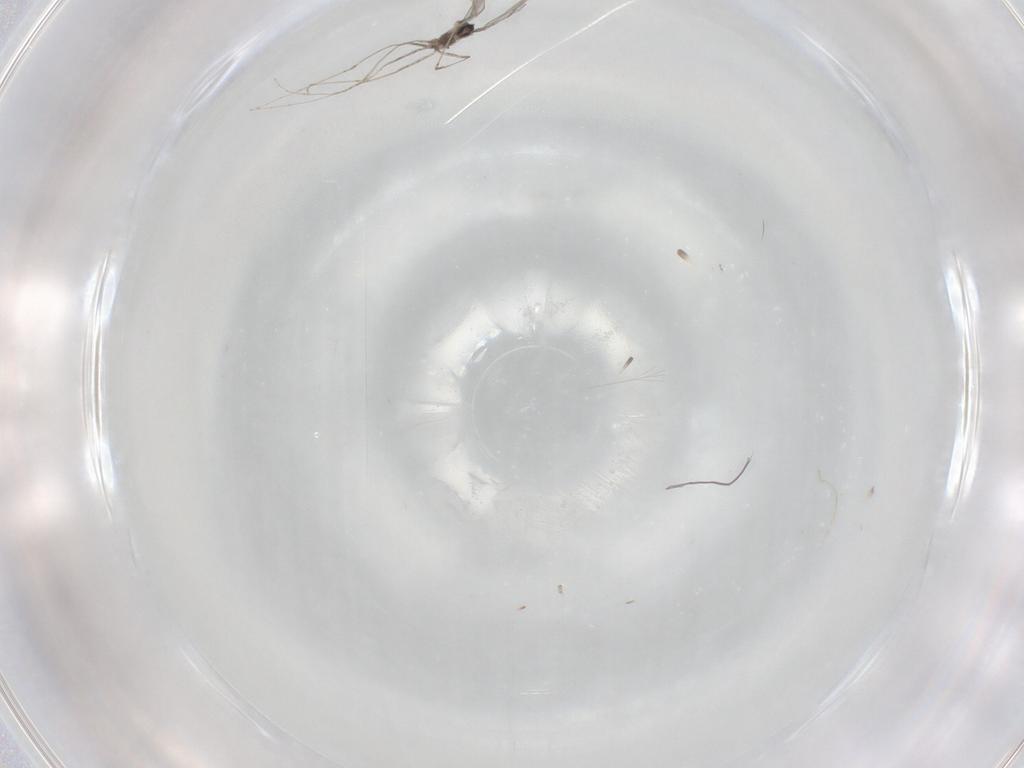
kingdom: Animalia
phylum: Arthropoda
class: Insecta
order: Diptera
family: Cecidomyiidae
